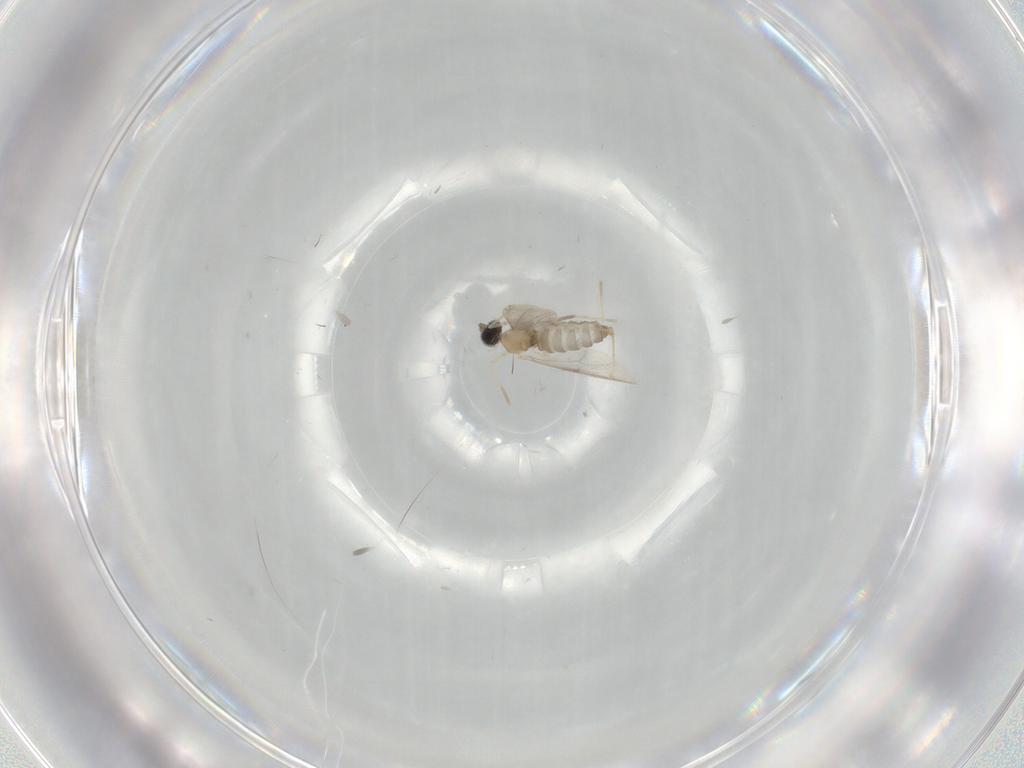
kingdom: Animalia
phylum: Arthropoda
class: Insecta
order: Diptera
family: Cecidomyiidae
